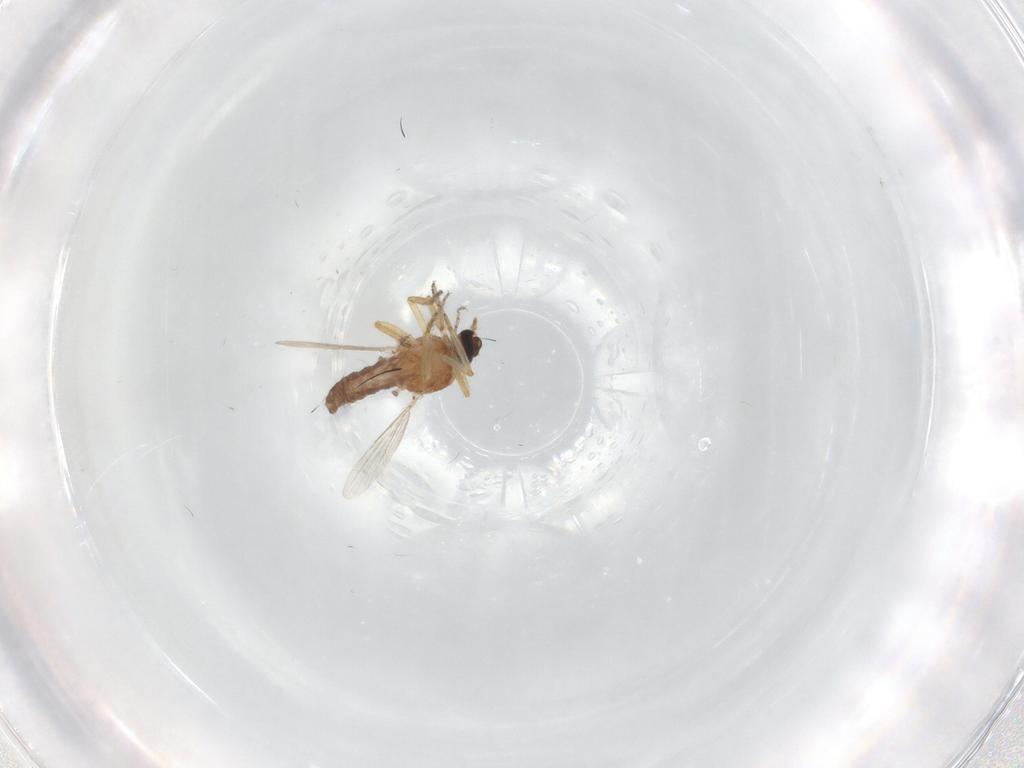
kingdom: Animalia
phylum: Arthropoda
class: Insecta
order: Diptera
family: Ceratopogonidae
